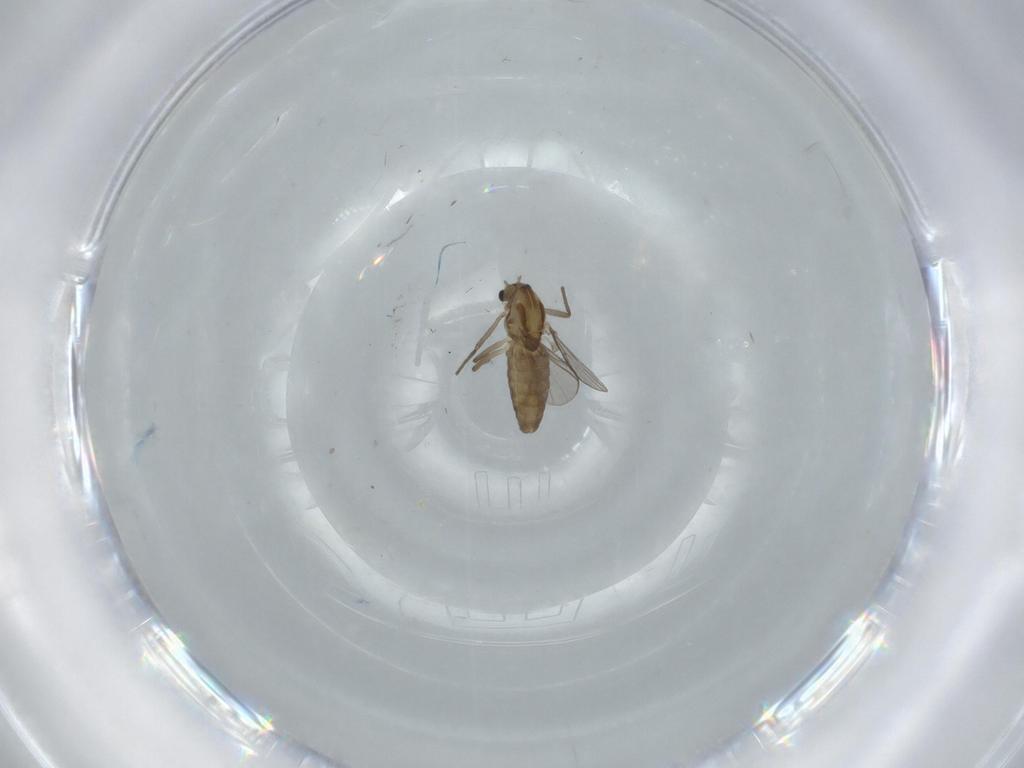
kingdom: Animalia
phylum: Arthropoda
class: Insecta
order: Diptera
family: Chironomidae
